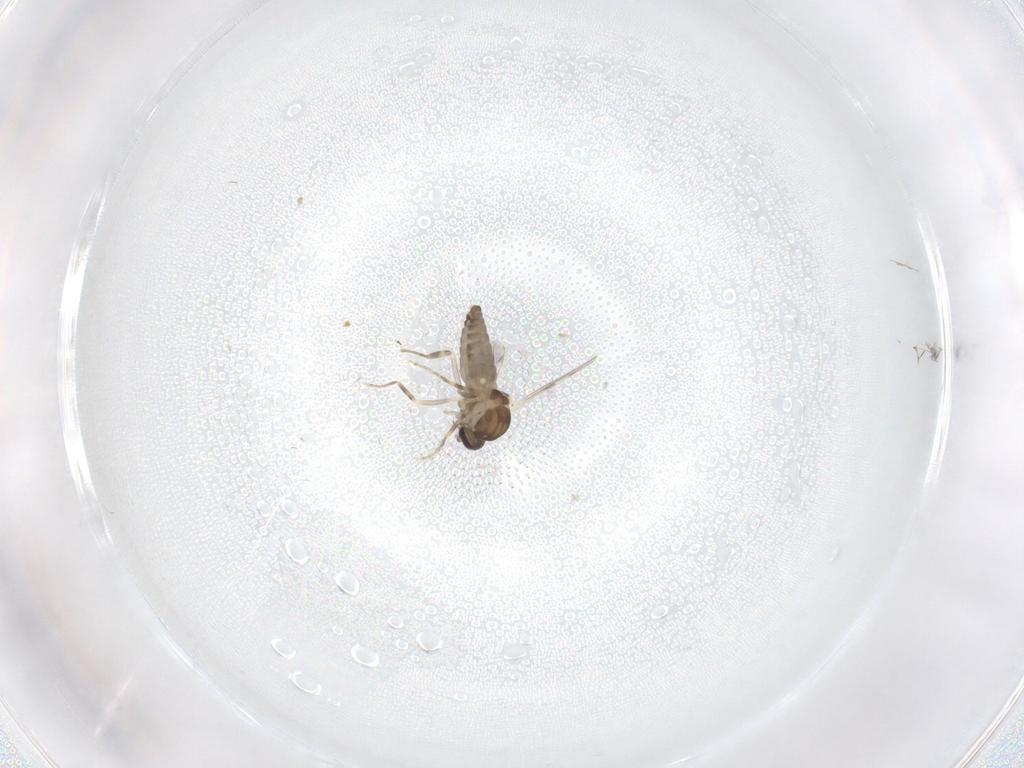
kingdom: Animalia
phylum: Arthropoda
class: Insecta
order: Diptera
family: Ceratopogonidae
